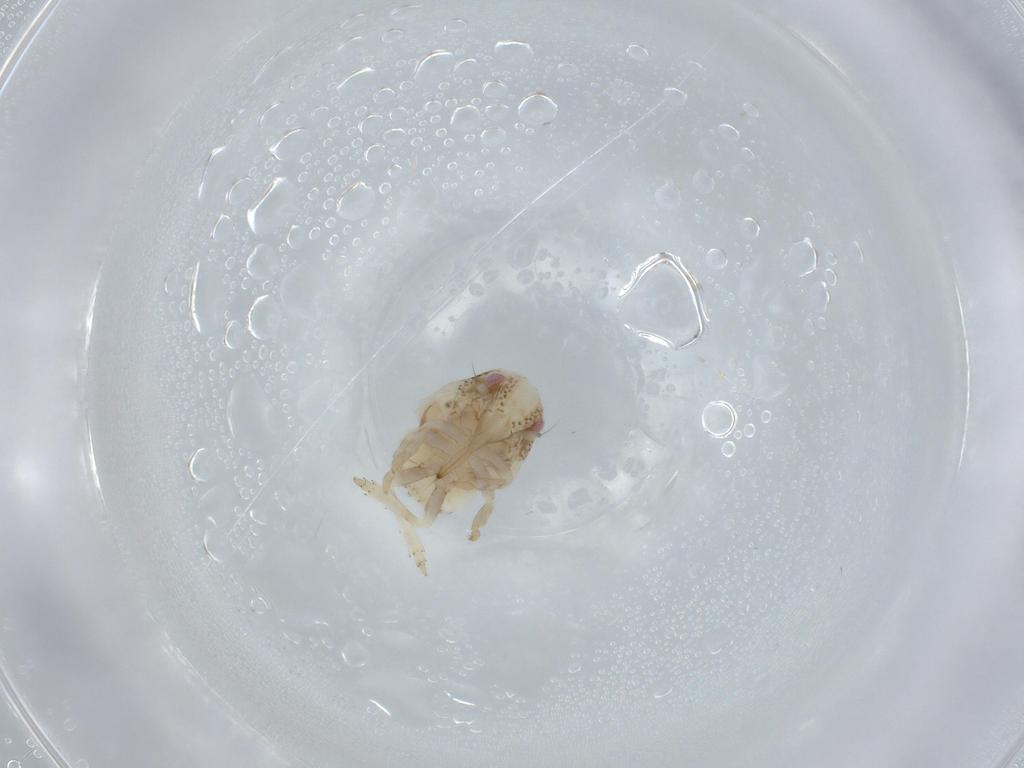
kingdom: Animalia
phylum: Arthropoda
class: Insecta
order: Hemiptera
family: Acanaloniidae
